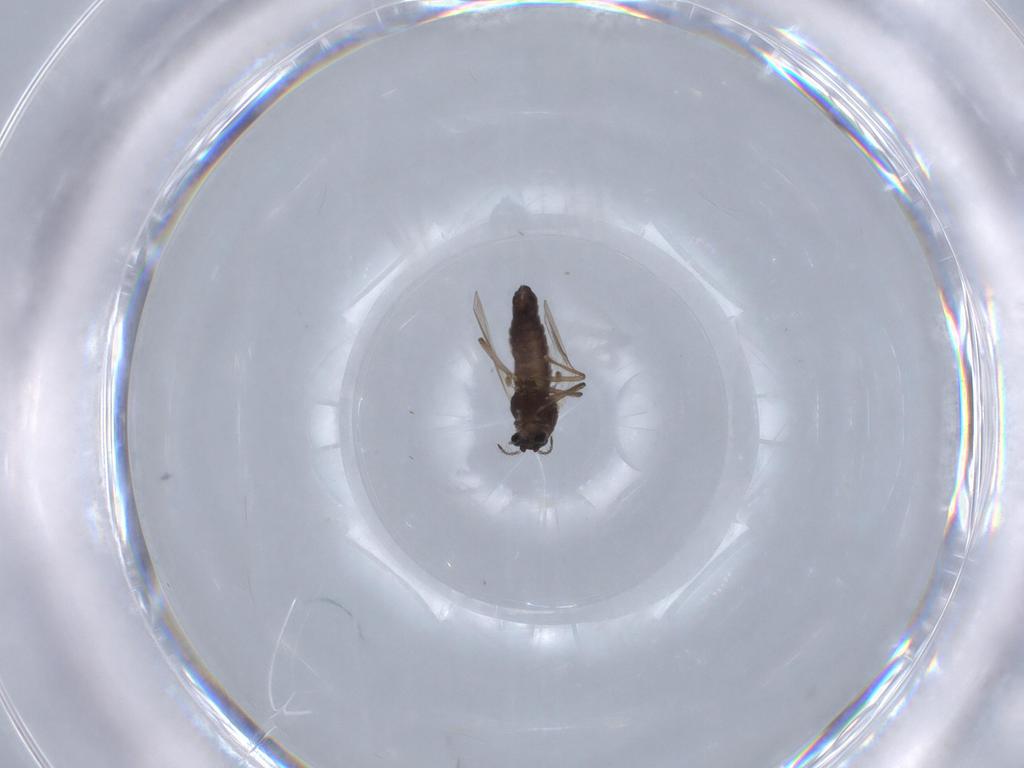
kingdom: Animalia
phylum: Arthropoda
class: Insecta
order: Diptera
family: Chironomidae
